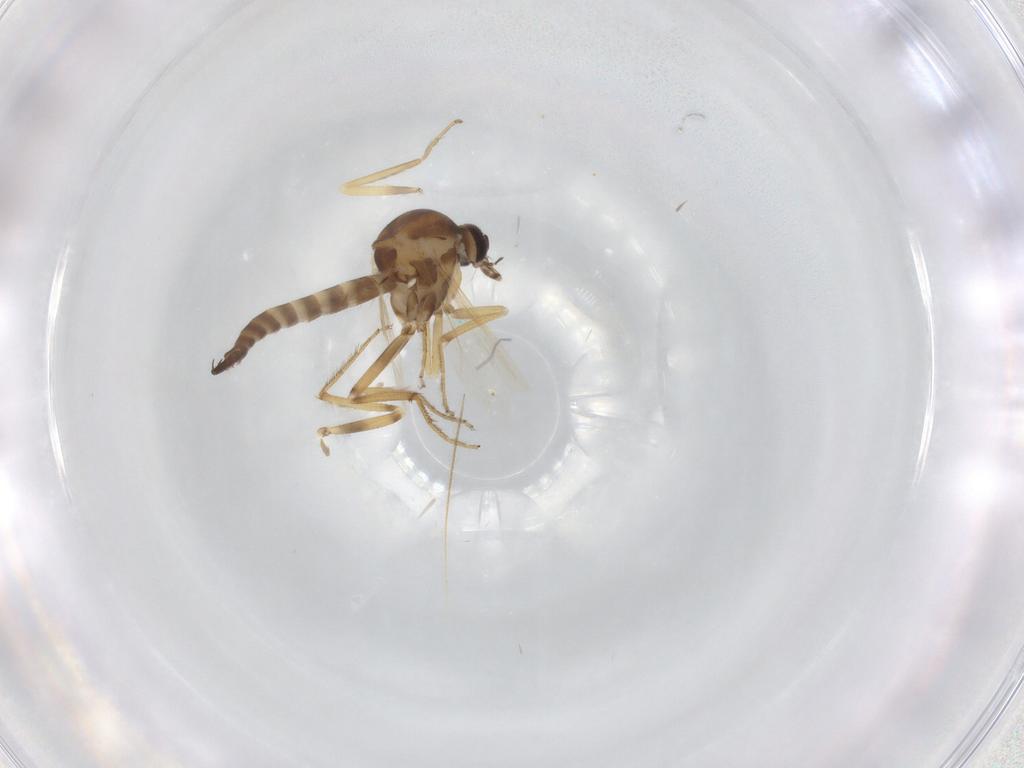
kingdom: Animalia
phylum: Arthropoda
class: Insecta
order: Diptera
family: Ceratopogonidae
